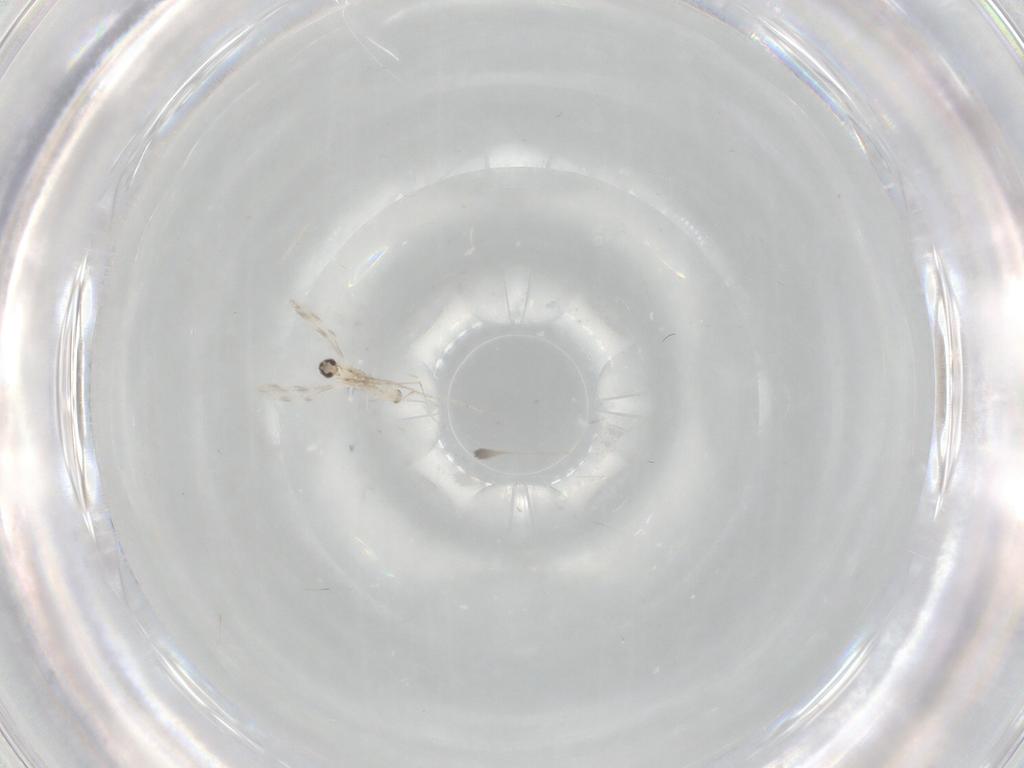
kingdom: Animalia
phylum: Arthropoda
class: Insecta
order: Diptera
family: Cecidomyiidae
